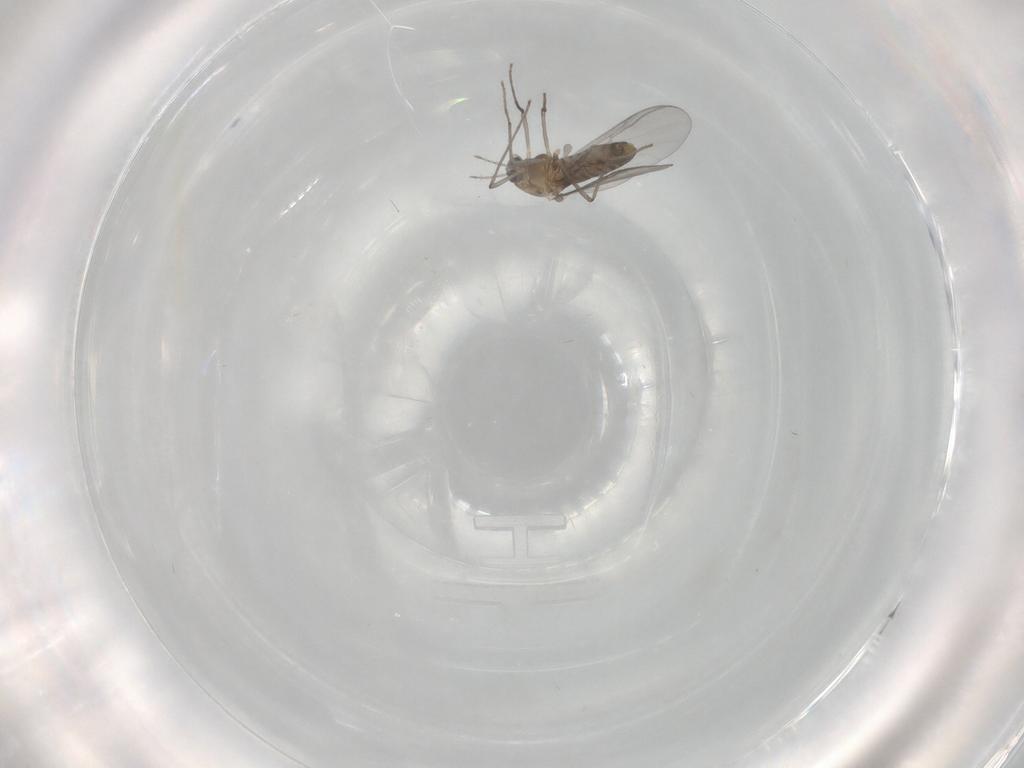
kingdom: Animalia
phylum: Arthropoda
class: Insecta
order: Diptera
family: Chironomidae
